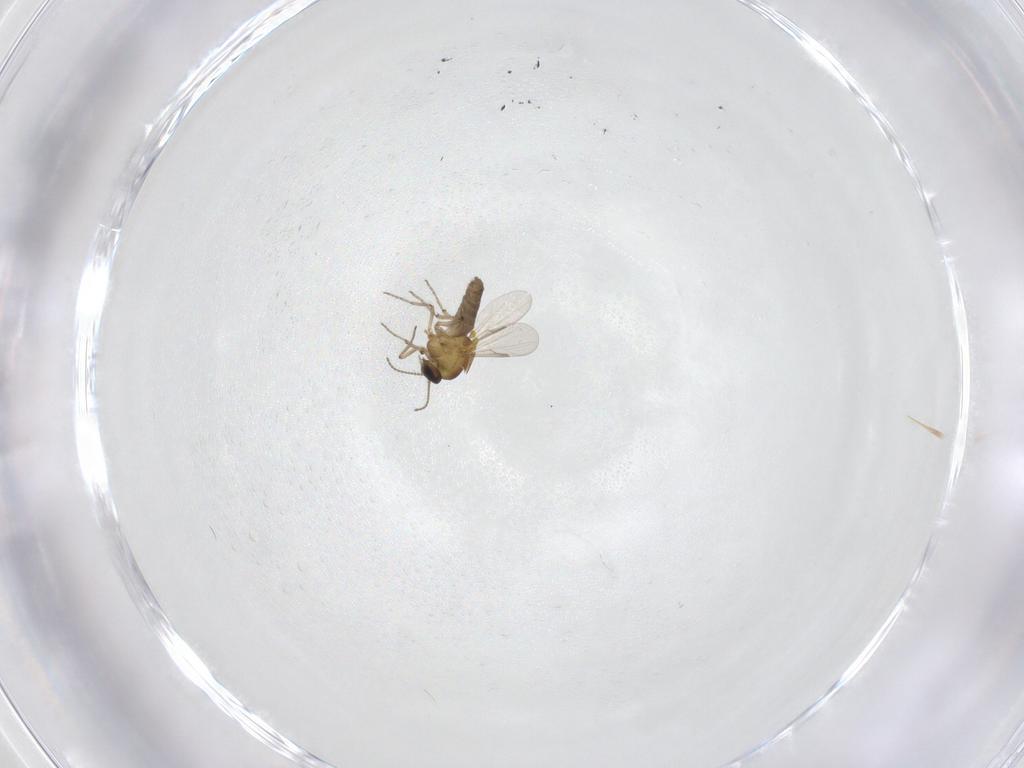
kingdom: Animalia
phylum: Arthropoda
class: Insecta
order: Diptera
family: Ceratopogonidae
